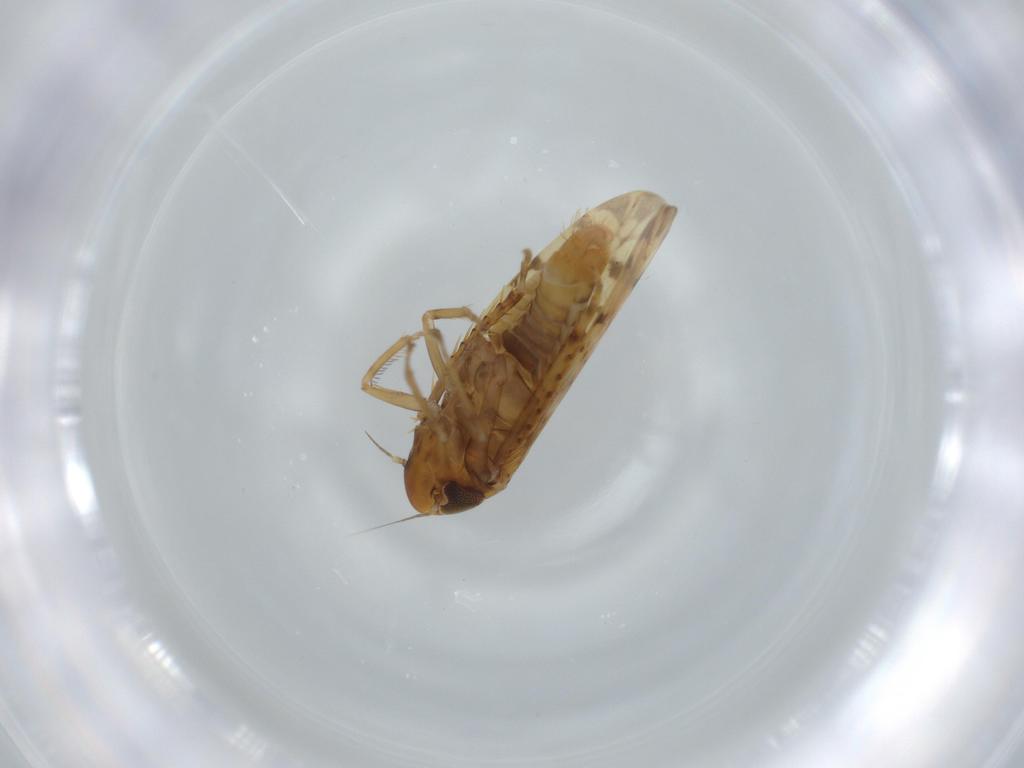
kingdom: Animalia
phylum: Arthropoda
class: Insecta
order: Hemiptera
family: Cicadellidae
